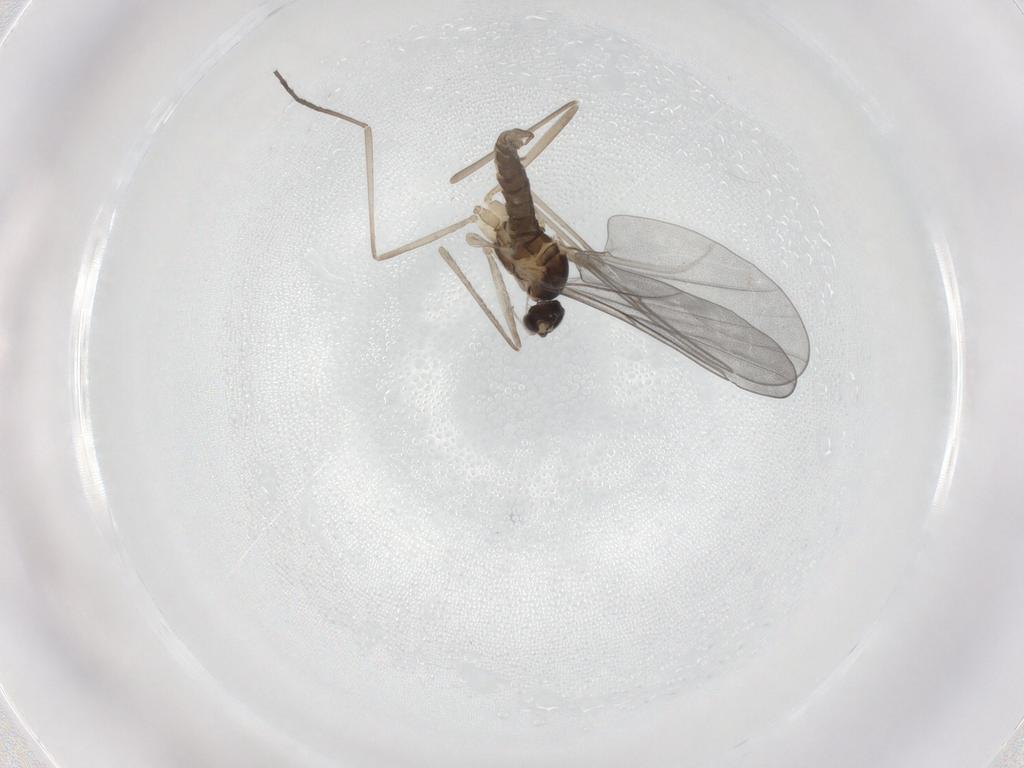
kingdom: Animalia
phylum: Arthropoda
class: Insecta
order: Diptera
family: Cecidomyiidae
